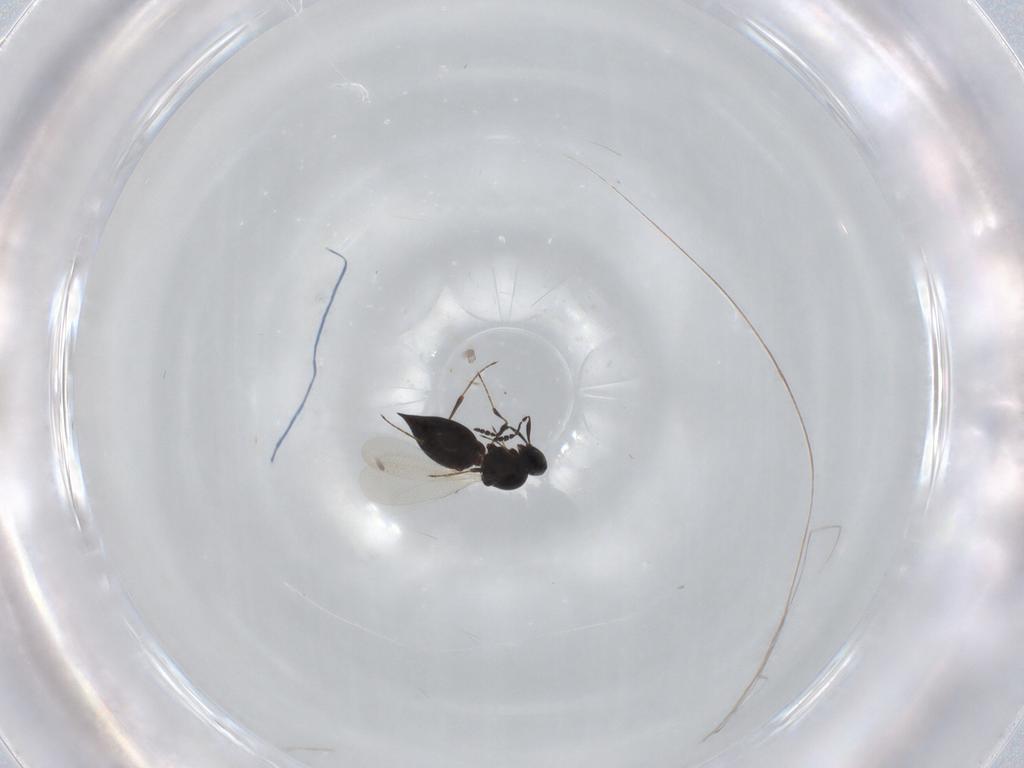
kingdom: Animalia
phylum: Arthropoda
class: Insecta
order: Hymenoptera
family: Platygastridae
